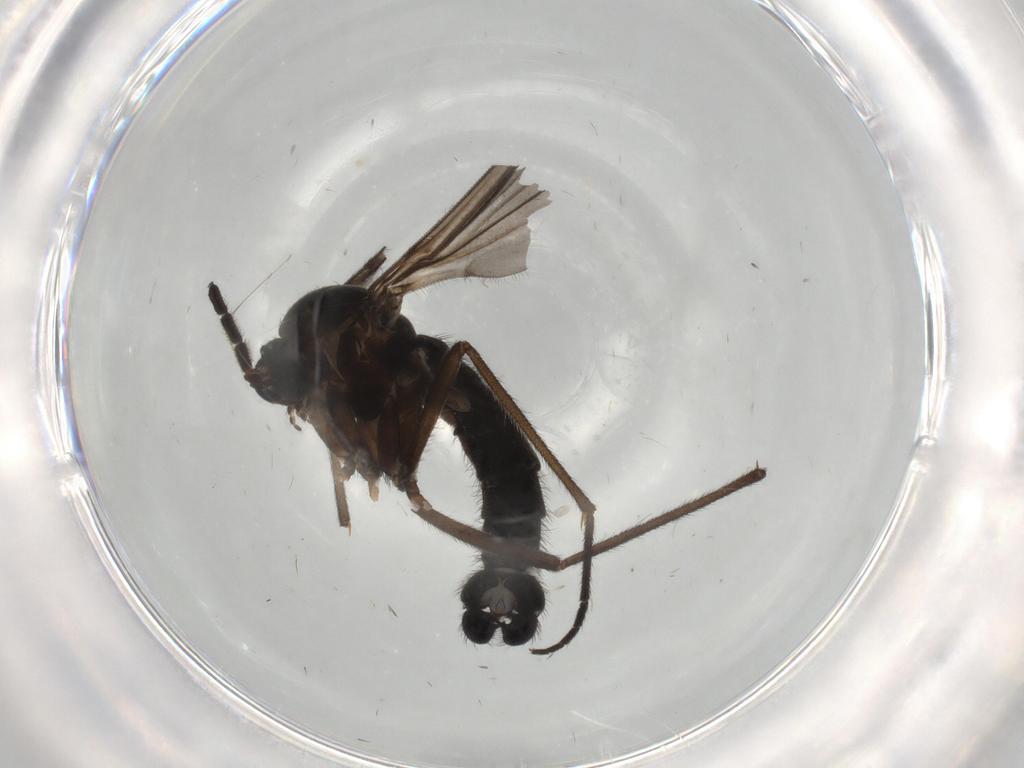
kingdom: Animalia
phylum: Arthropoda
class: Insecta
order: Diptera
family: Sciaridae
